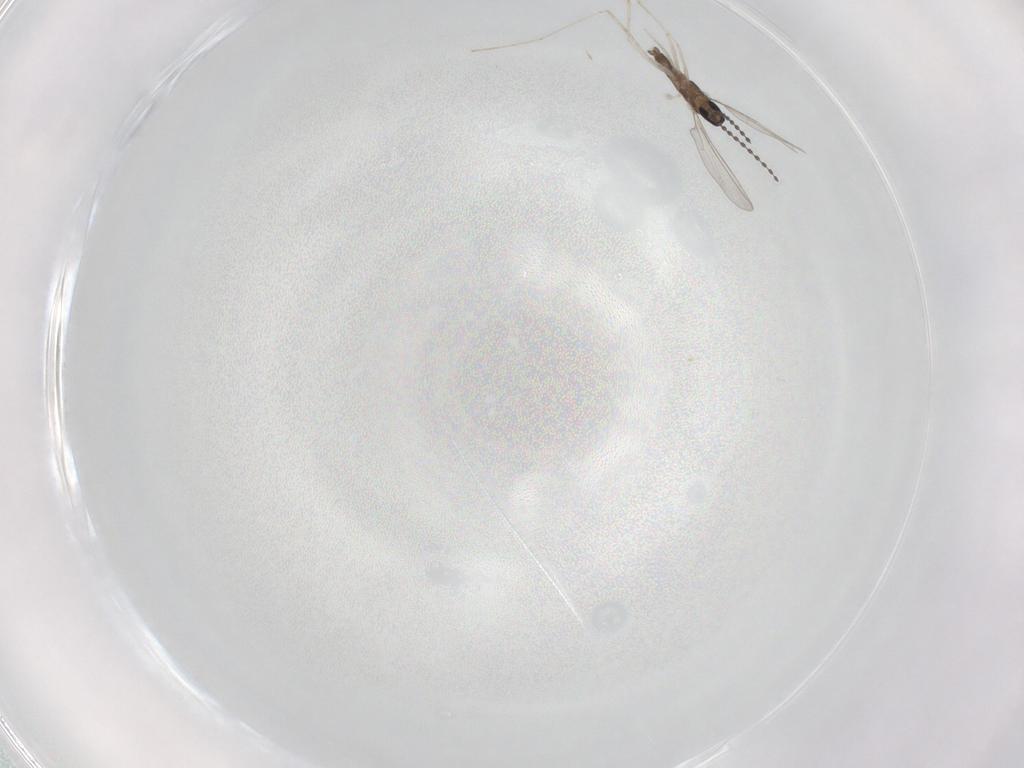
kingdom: Animalia
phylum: Arthropoda
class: Insecta
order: Diptera
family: Cecidomyiidae
